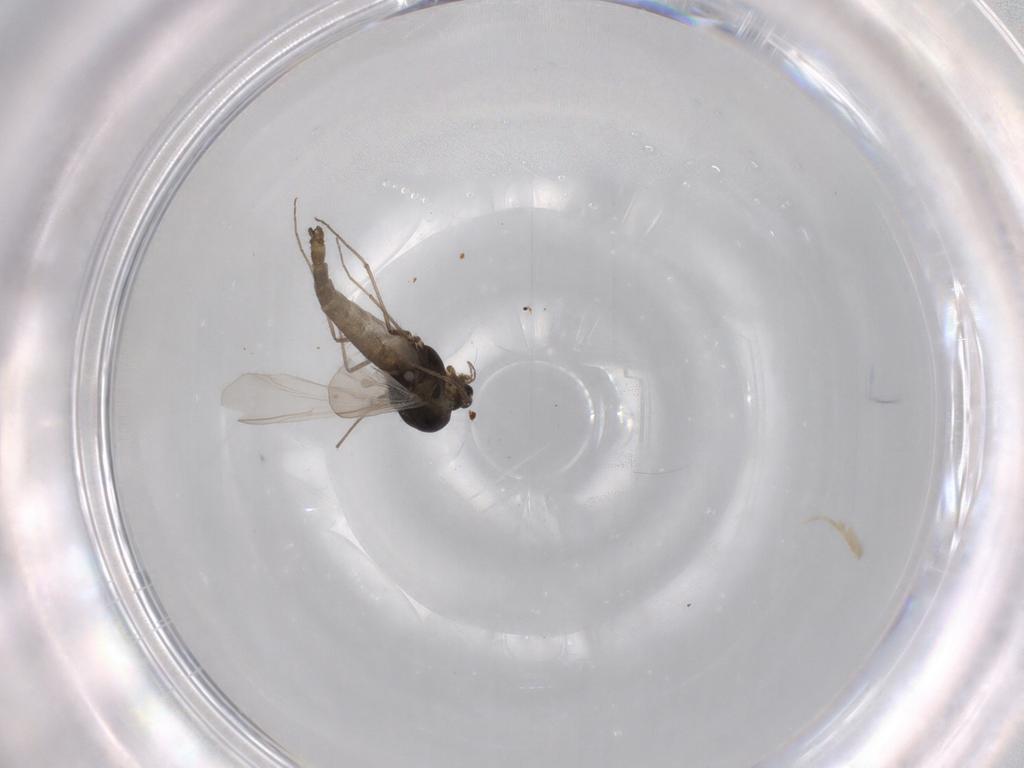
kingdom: Animalia
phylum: Arthropoda
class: Insecta
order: Diptera
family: Chironomidae
